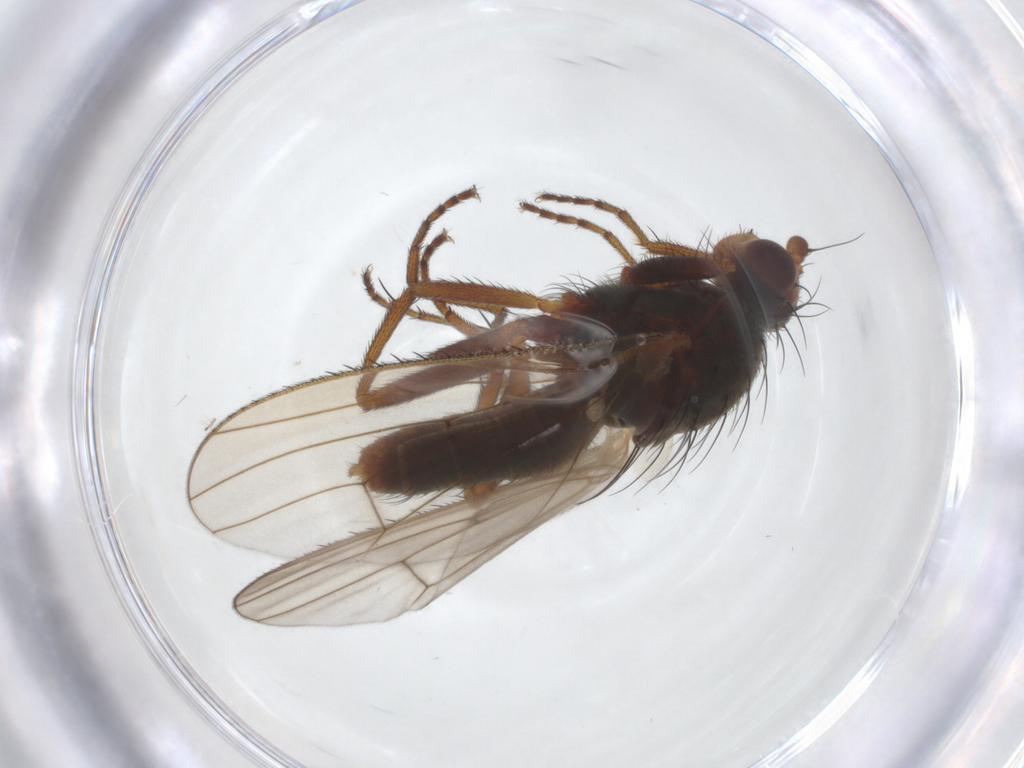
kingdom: Animalia
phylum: Arthropoda
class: Insecta
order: Diptera
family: Heleomyzidae
